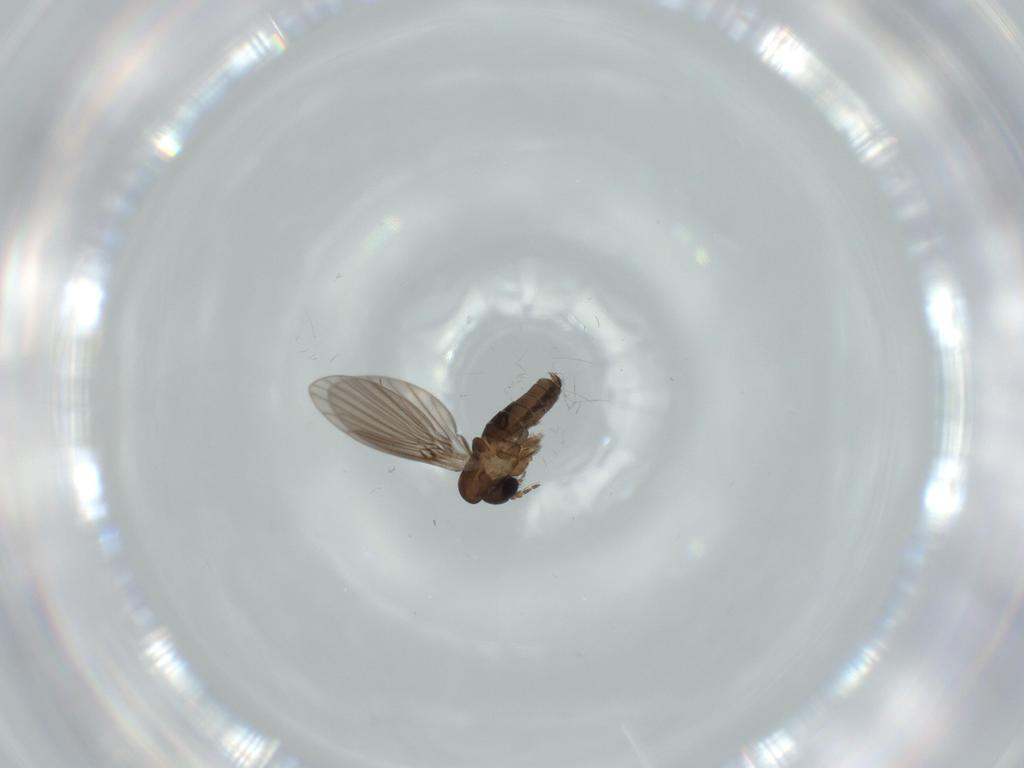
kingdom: Animalia
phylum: Arthropoda
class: Insecta
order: Diptera
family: Psychodidae
